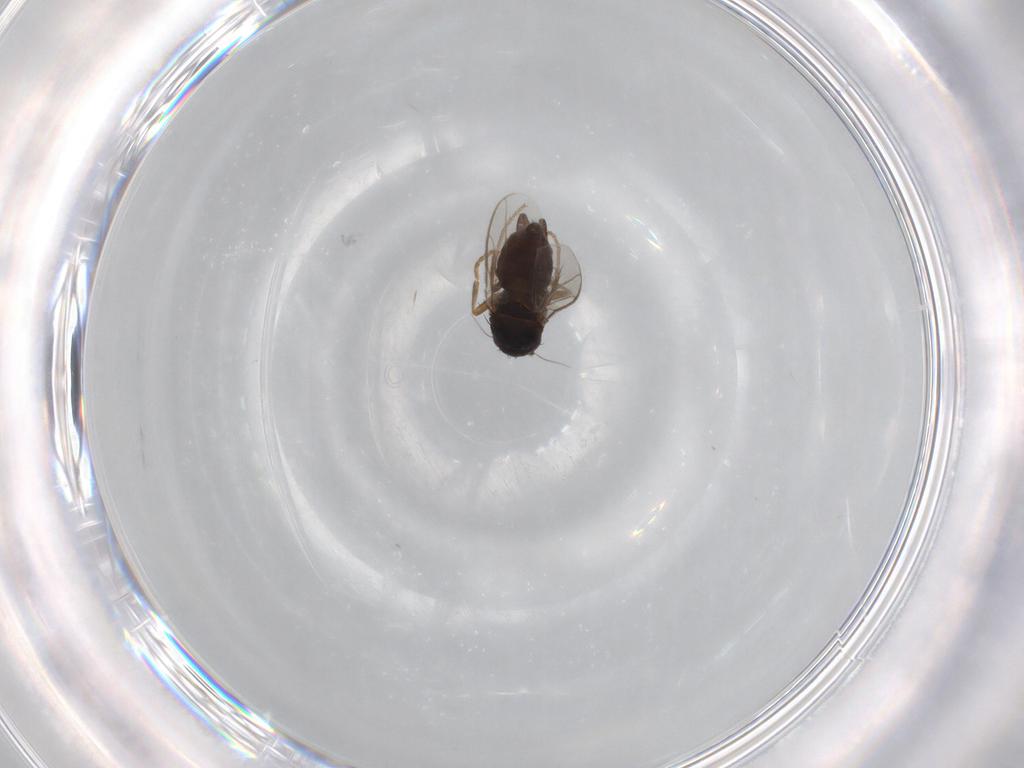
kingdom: Animalia
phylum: Arthropoda
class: Insecta
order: Diptera
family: Sphaeroceridae
